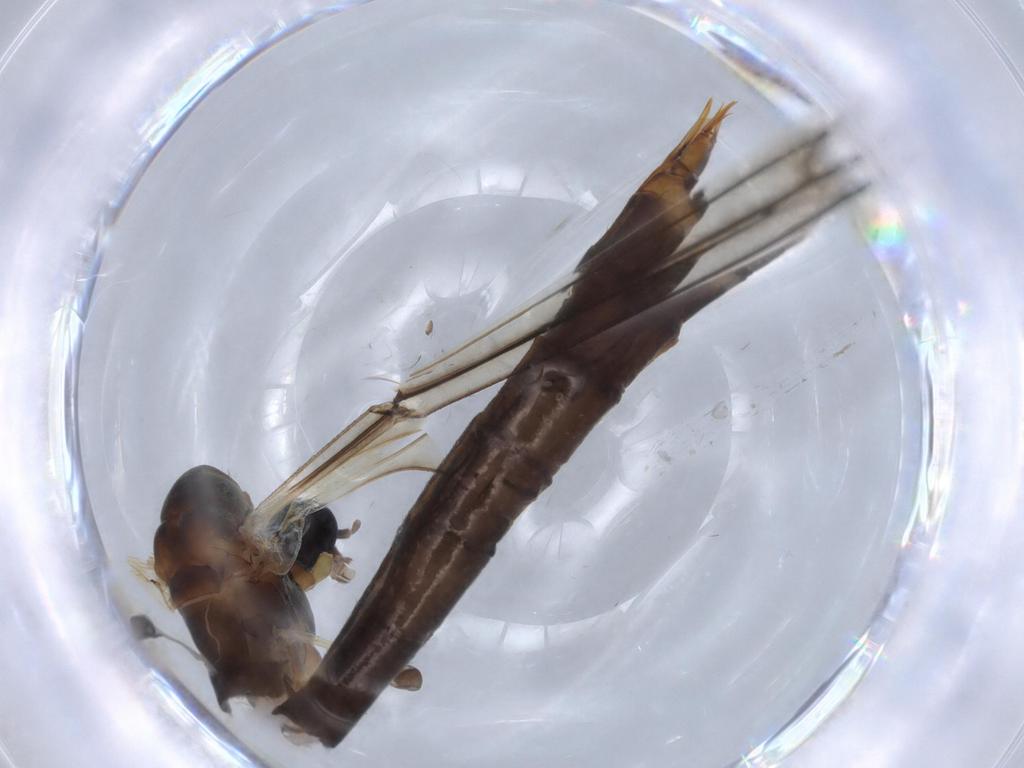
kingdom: Animalia
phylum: Arthropoda
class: Insecta
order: Diptera
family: Phoridae
